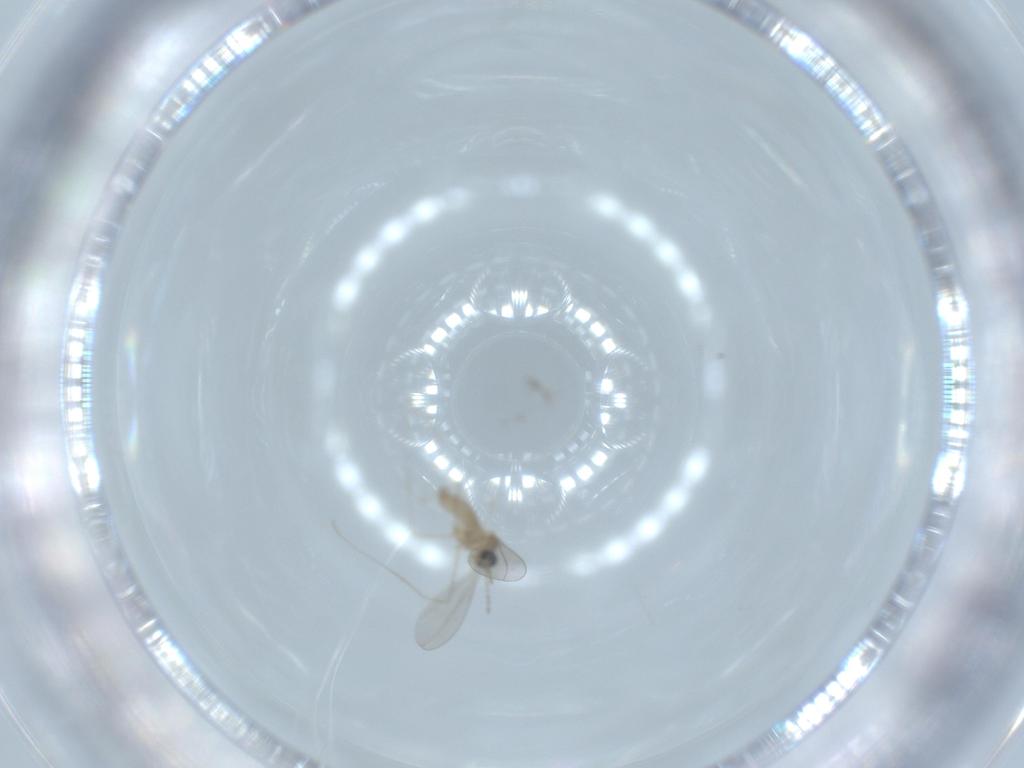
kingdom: Animalia
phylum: Arthropoda
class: Insecta
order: Diptera
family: Cecidomyiidae
